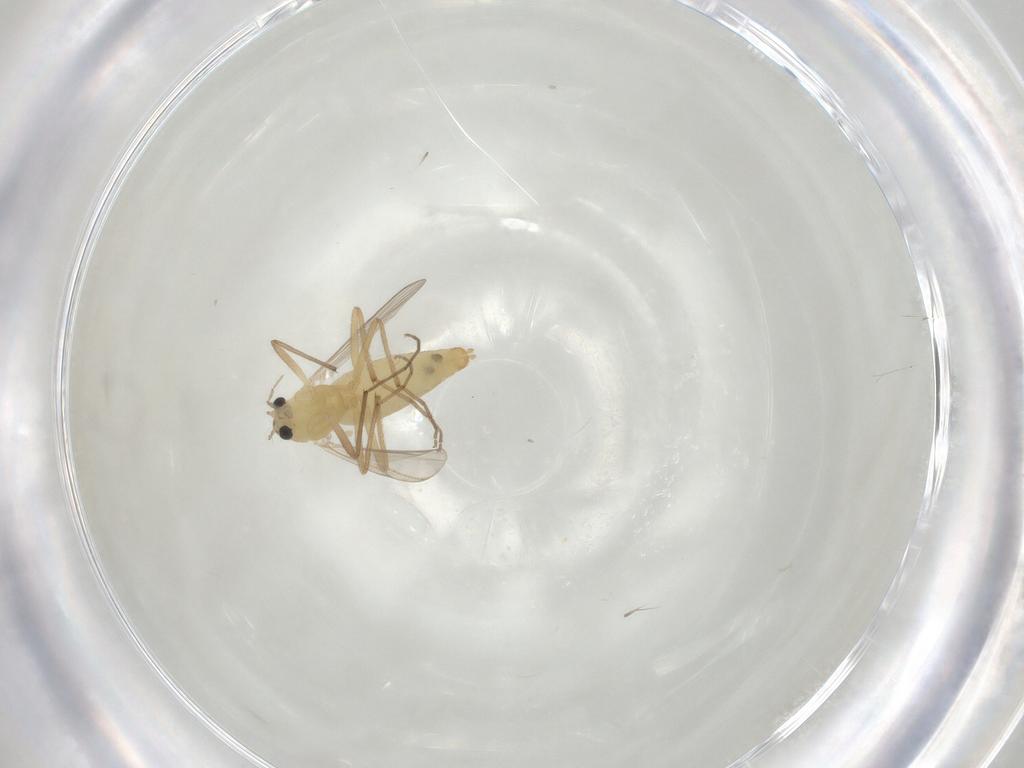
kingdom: Animalia
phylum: Arthropoda
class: Insecta
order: Diptera
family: Chironomidae
